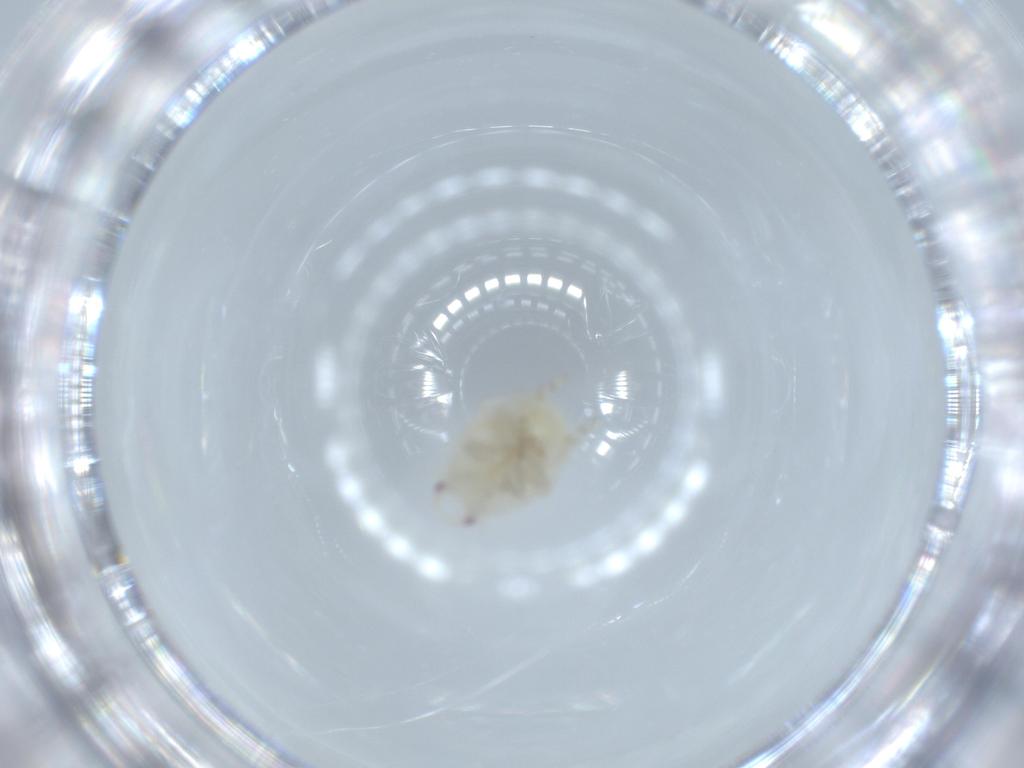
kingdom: Animalia
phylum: Arthropoda
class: Insecta
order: Hemiptera
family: Flatidae
